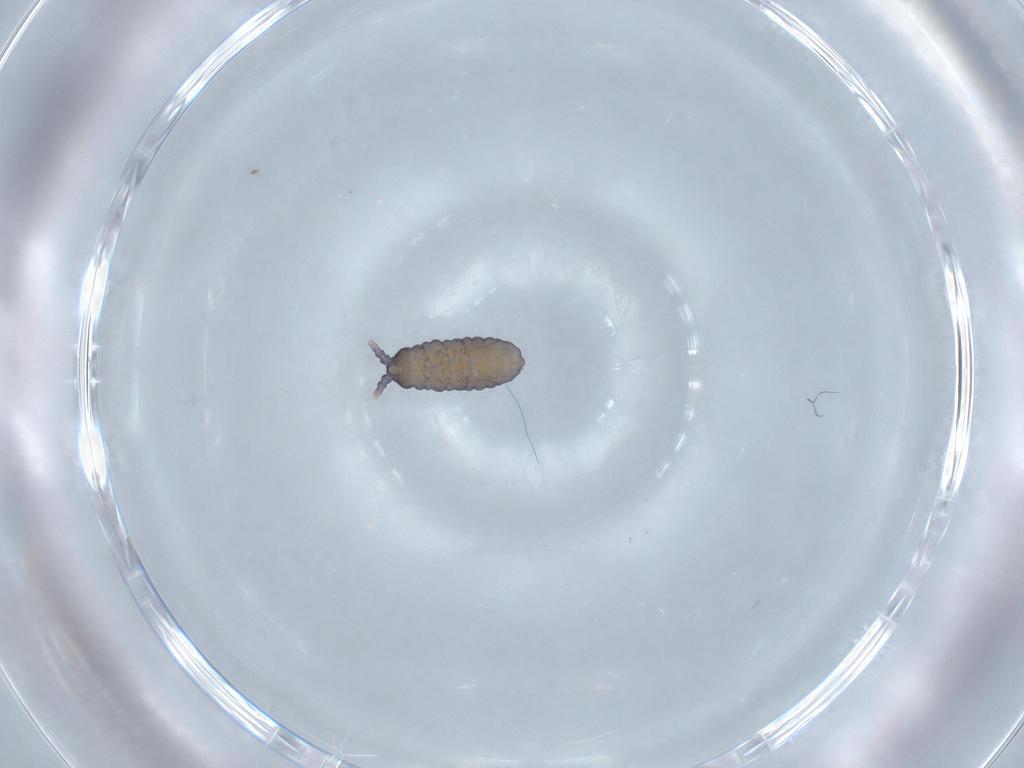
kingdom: Animalia
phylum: Arthropoda
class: Collembola
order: Poduromorpha
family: Neanuridae
